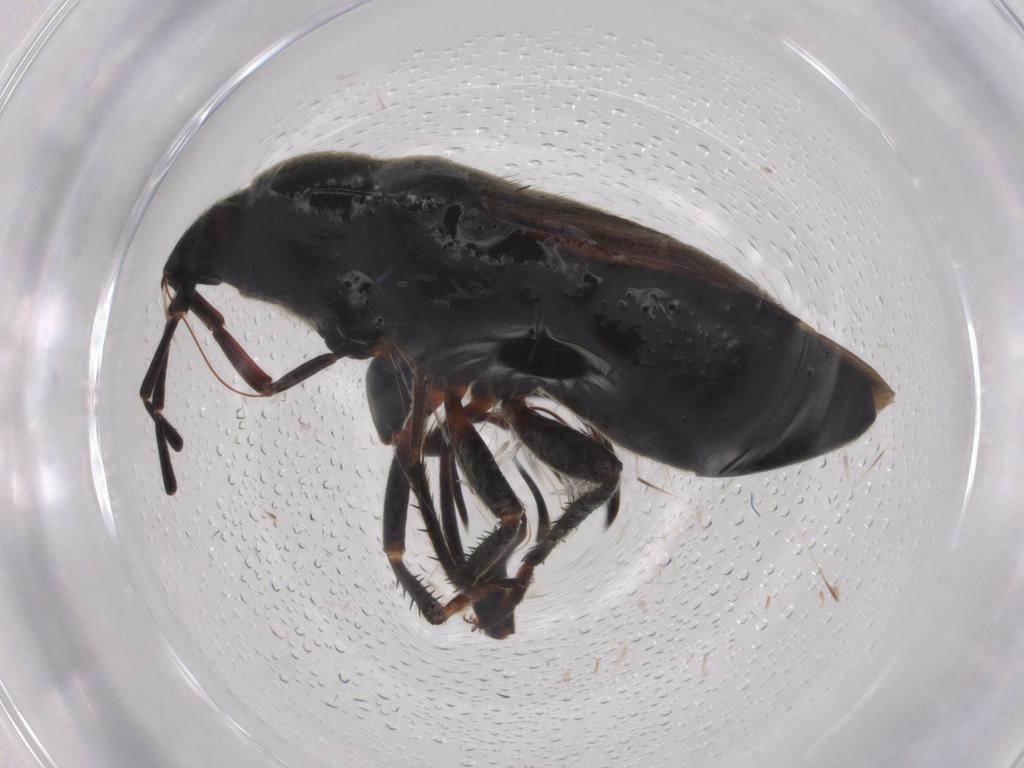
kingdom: Animalia
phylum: Arthropoda
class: Insecta
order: Hemiptera
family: Rhyparochromidae
